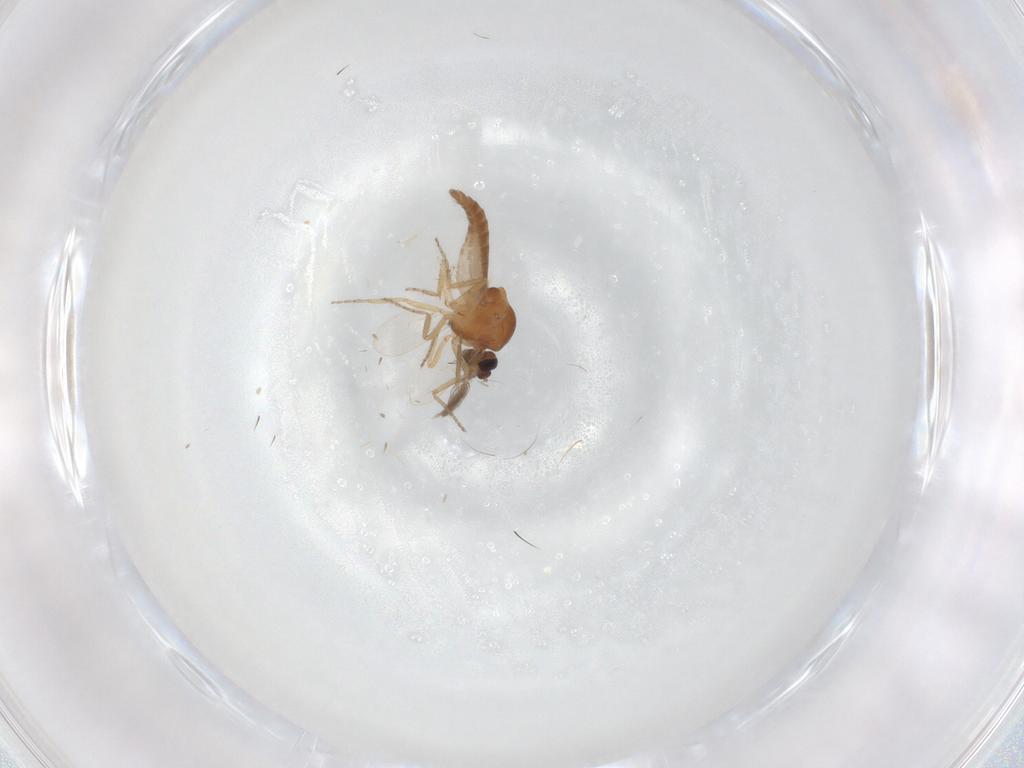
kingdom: Animalia
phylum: Arthropoda
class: Insecta
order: Diptera
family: Ceratopogonidae
